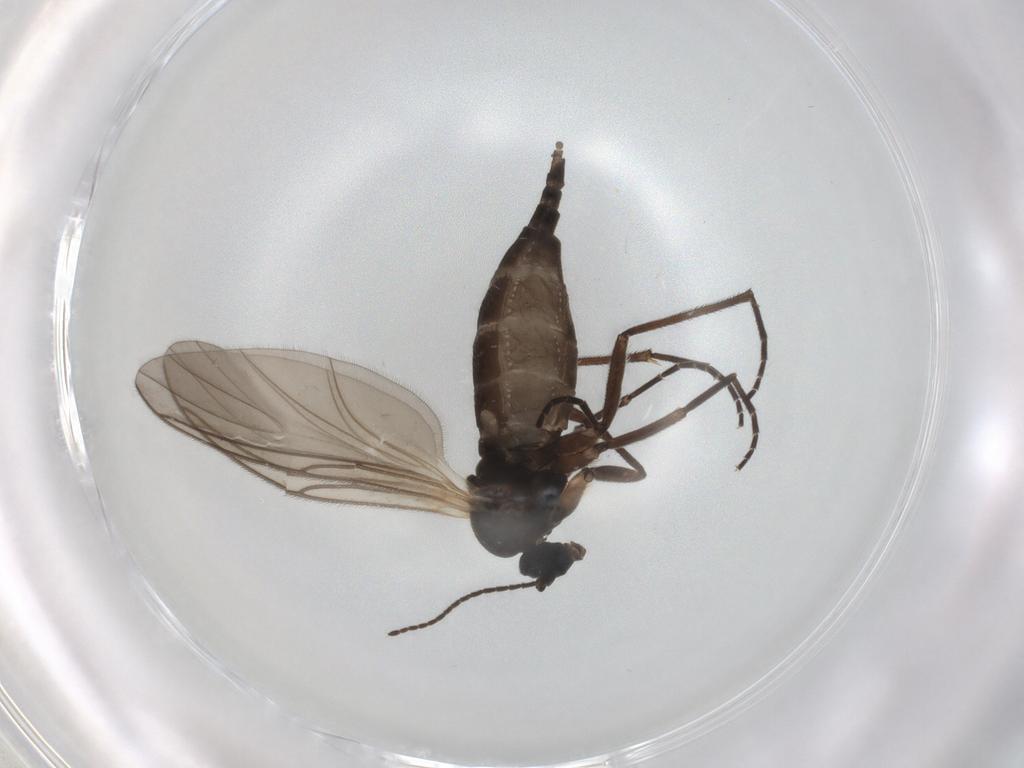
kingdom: Animalia
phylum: Arthropoda
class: Insecta
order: Diptera
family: Sciaridae
